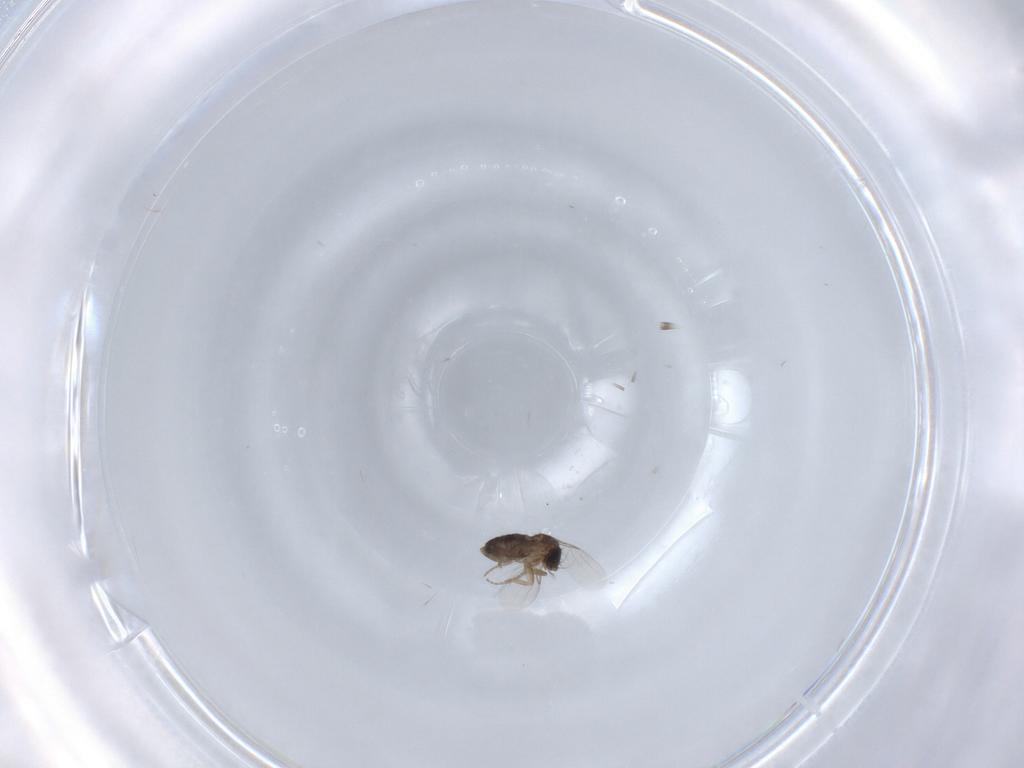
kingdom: Animalia
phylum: Arthropoda
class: Insecta
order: Diptera
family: Phoridae
